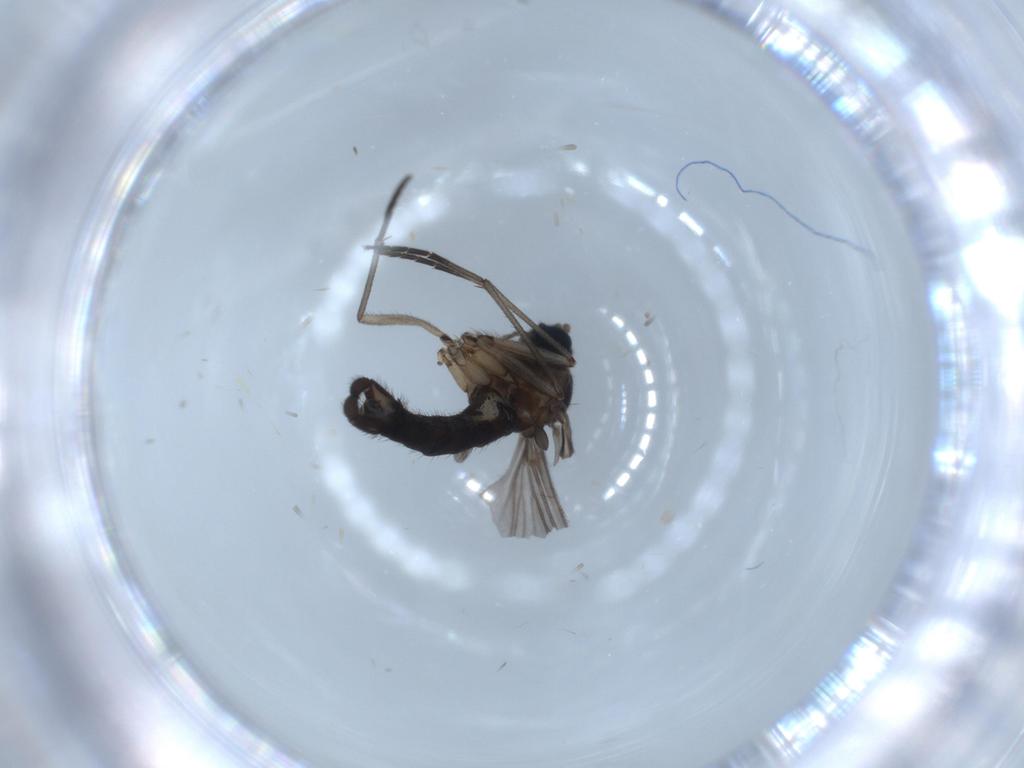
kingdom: Animalia
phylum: Arthropoda
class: Insecta
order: Diptera
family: Sciaridae
